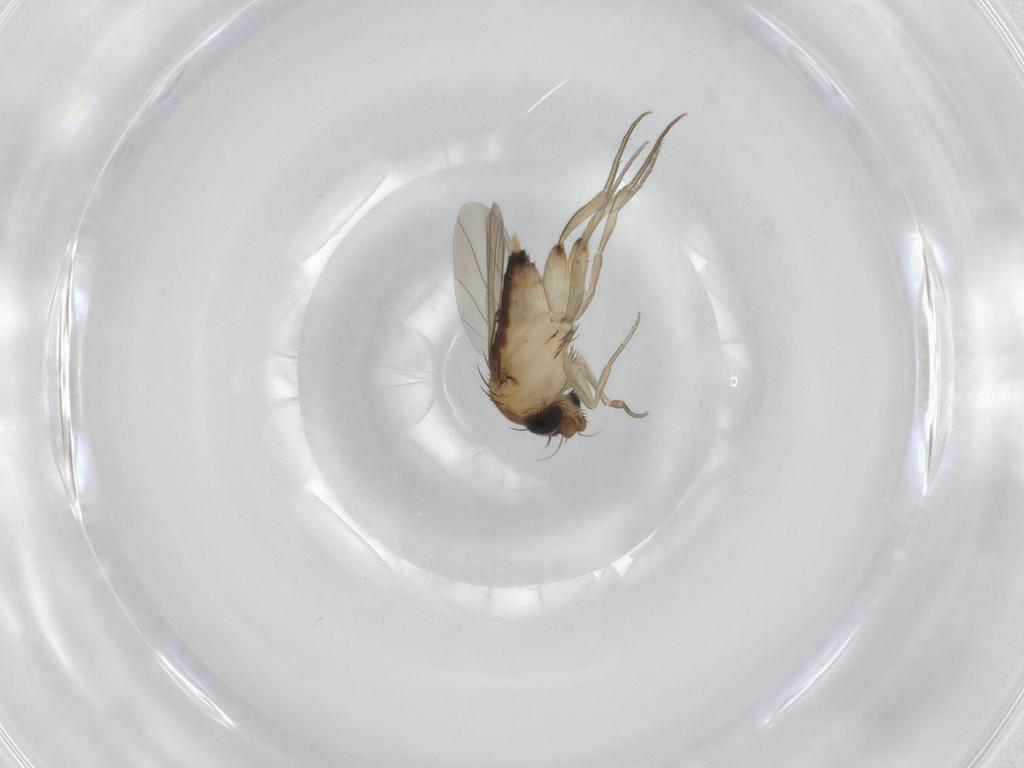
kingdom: Animalia
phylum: Arthropoda
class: Insecta
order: Diptera
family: Phoridae
